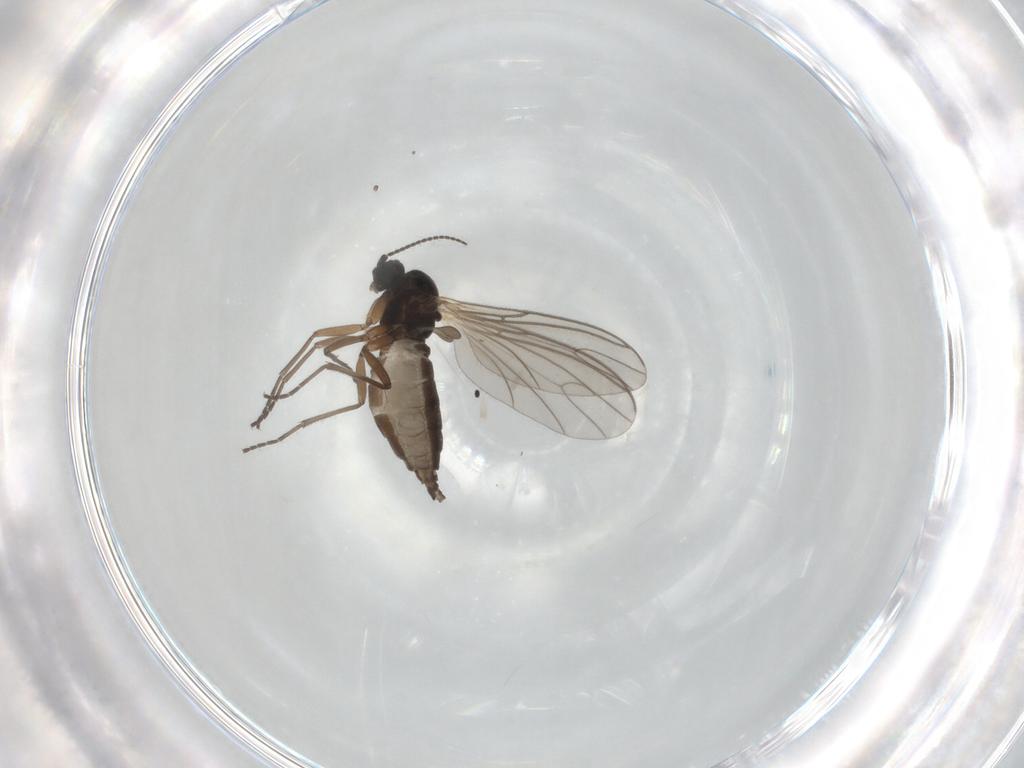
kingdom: Animalia
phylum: Arthropoda
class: Insecta
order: Diptera
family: Sciaridae
